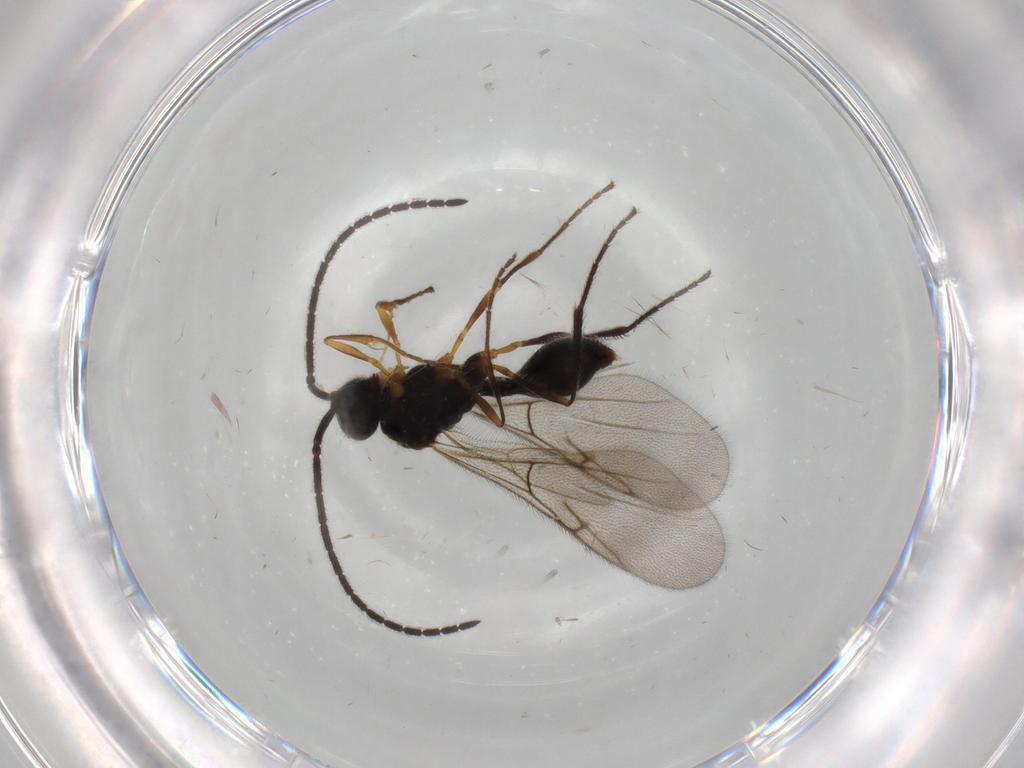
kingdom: Animalia
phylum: Arthropoda
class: Insecta
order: Hymenoptera
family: Diapriidae
